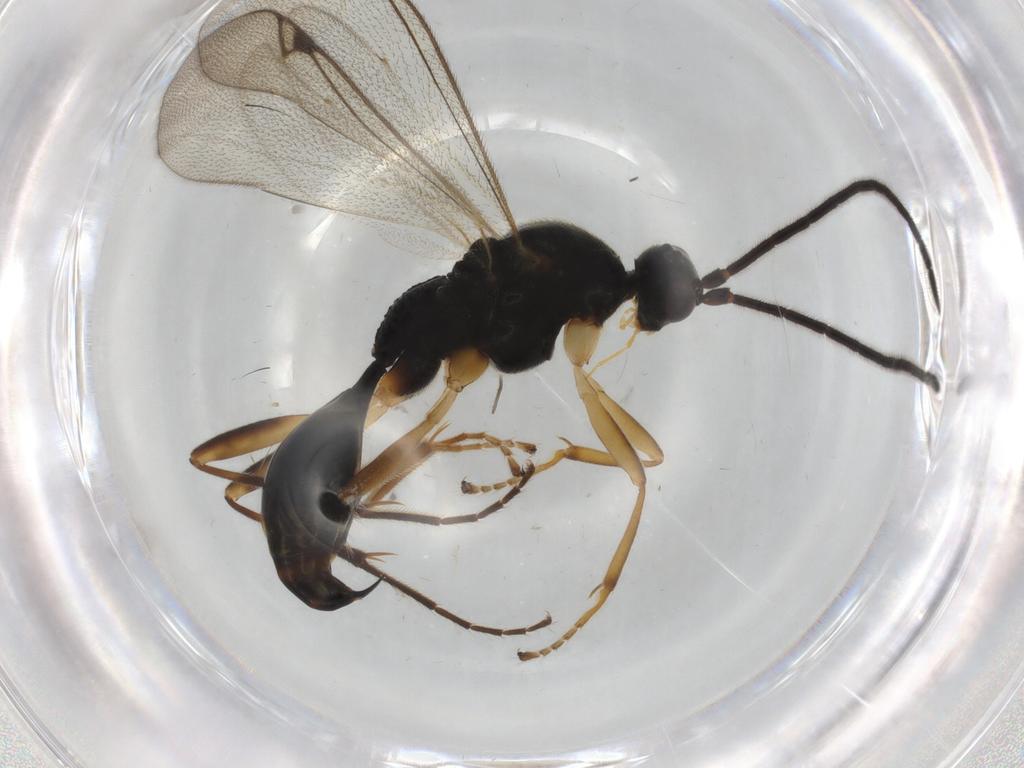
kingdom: Animalia
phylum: Arthropoda
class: Insecta
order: Hymenoptera
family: Proctotrupidae
